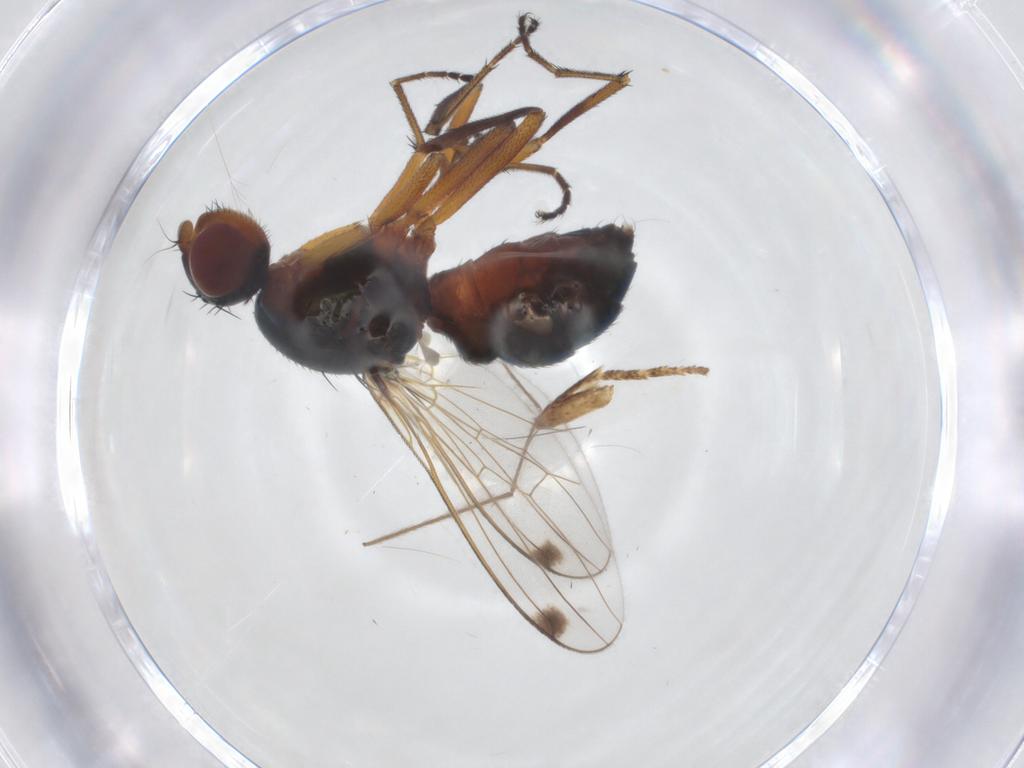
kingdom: Animalia
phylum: Arthropoda
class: Insecta
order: Diptera
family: Sepsidae
